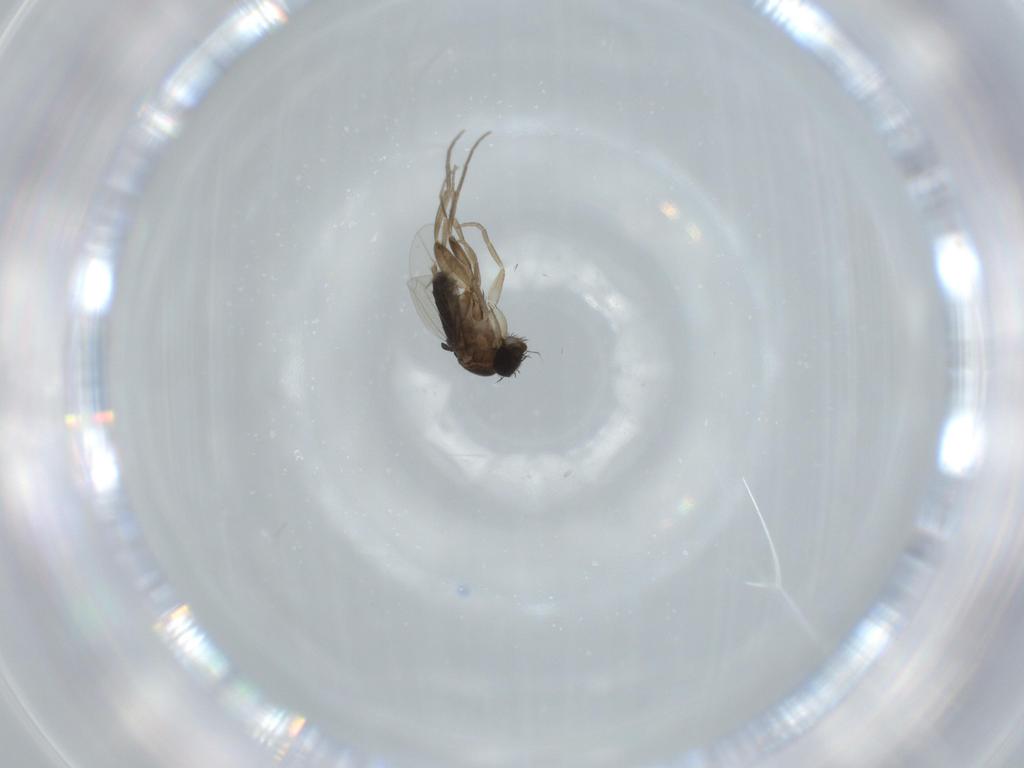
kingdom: Animalia
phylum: Arthropoda
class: Insecta
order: Diptera
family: Phoridae
